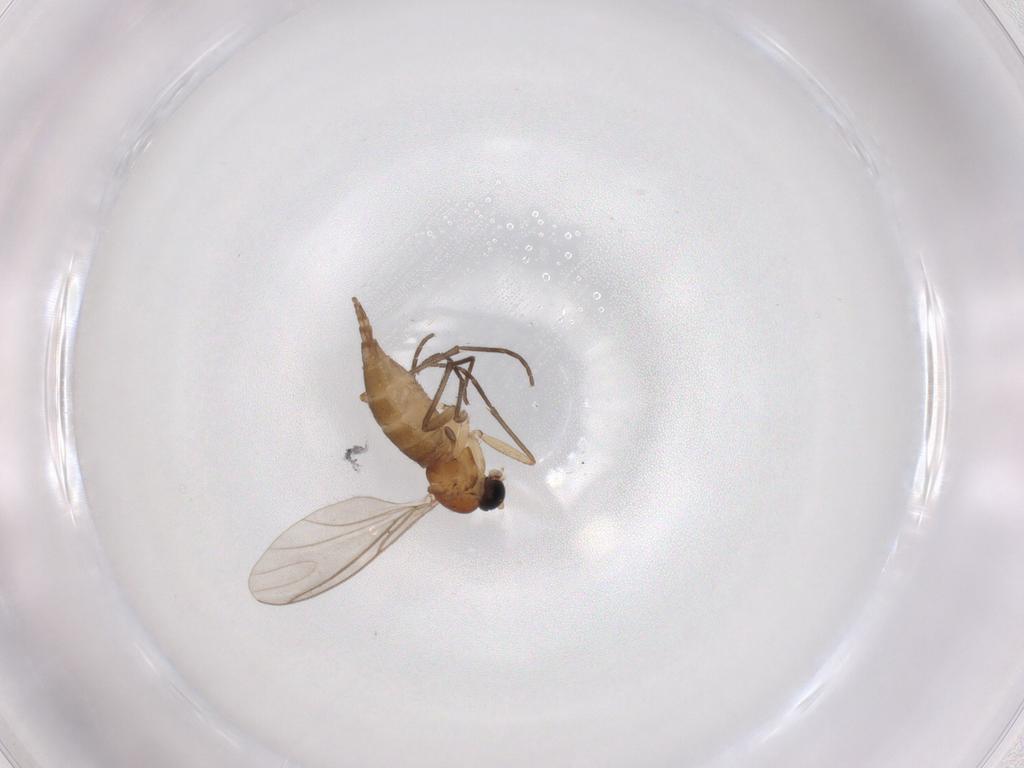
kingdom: Animalia
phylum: Arthropoda
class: Insecta
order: Diptera
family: Sciaridae
